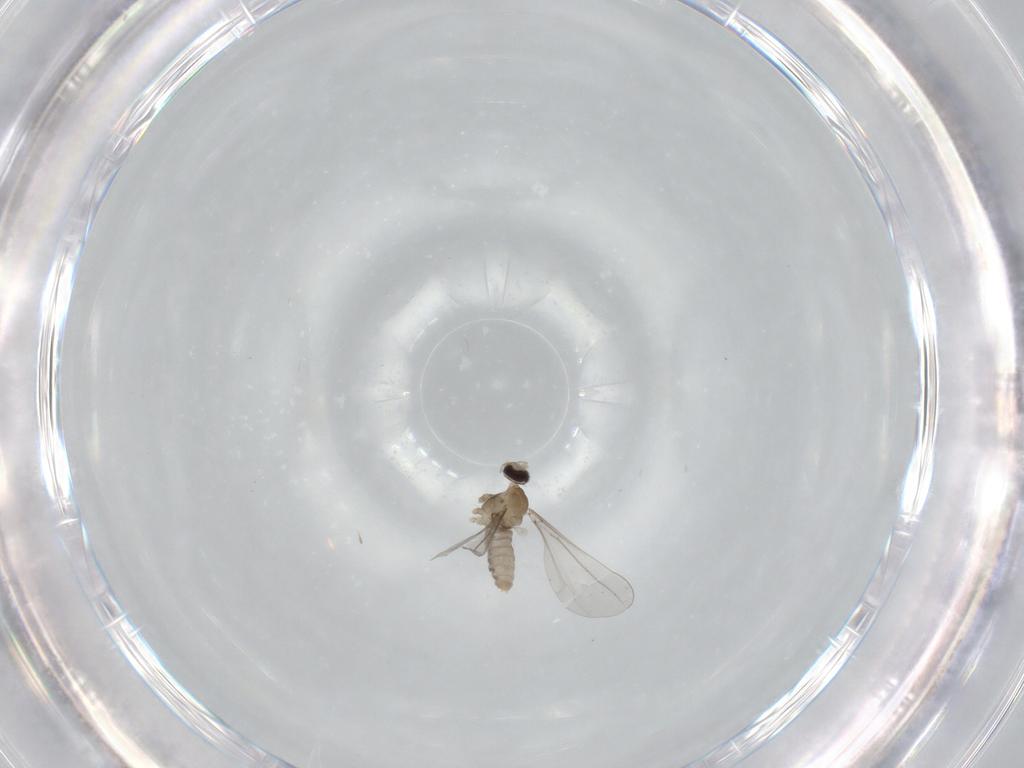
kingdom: Animalia
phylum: Arthropoda
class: Insecta
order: Diptera
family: Cecidomyiidae
